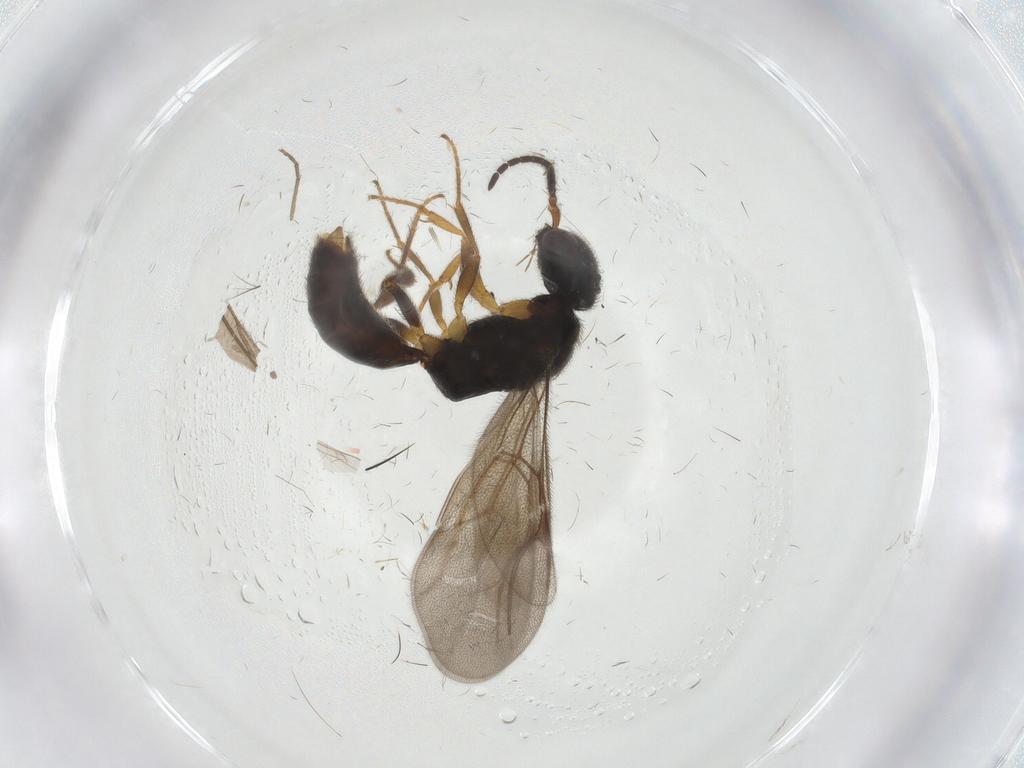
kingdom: Animalia
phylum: Arthropoda
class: Insecta
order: Hymenoptera
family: Bethylidae
